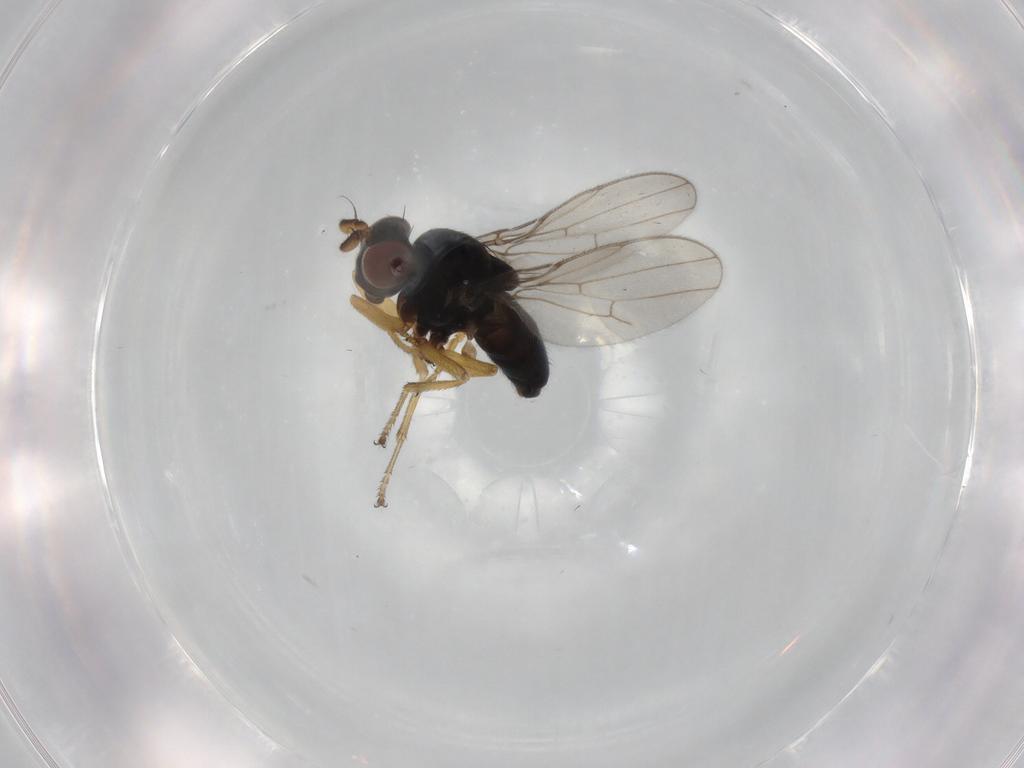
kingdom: Animalia
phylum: Arthropoda
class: Insecta
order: Diptera
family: Ephydridae
